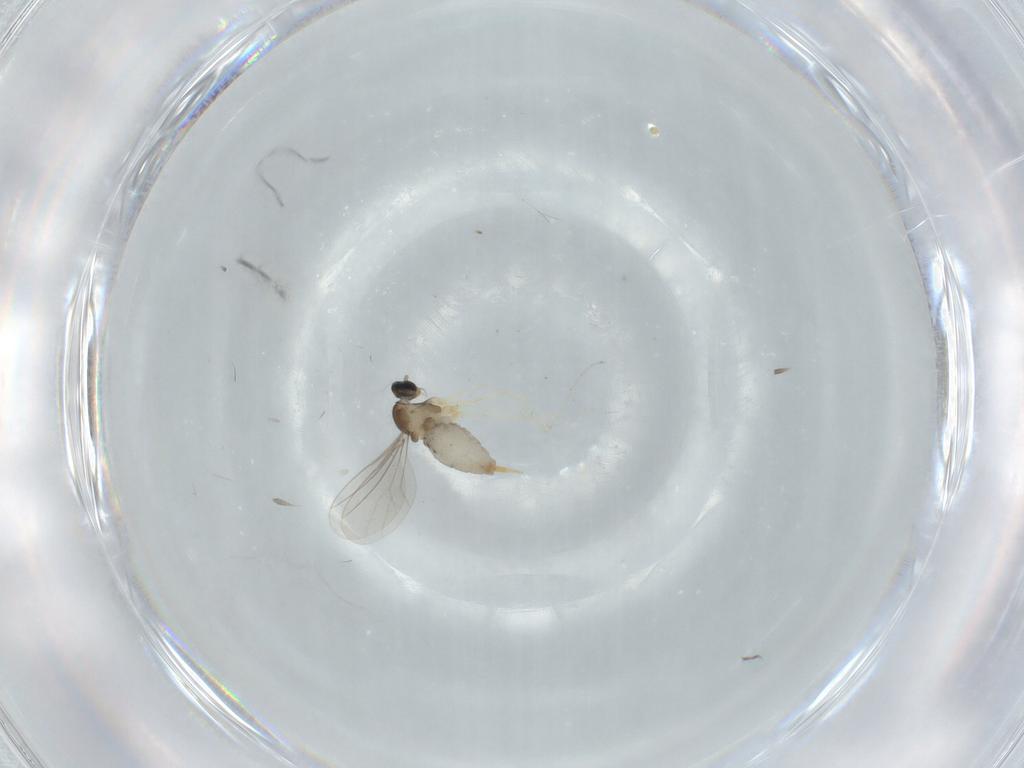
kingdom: Animalia
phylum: Arthropoda
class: Insecta
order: Diptera
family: Cecidomyiidae
